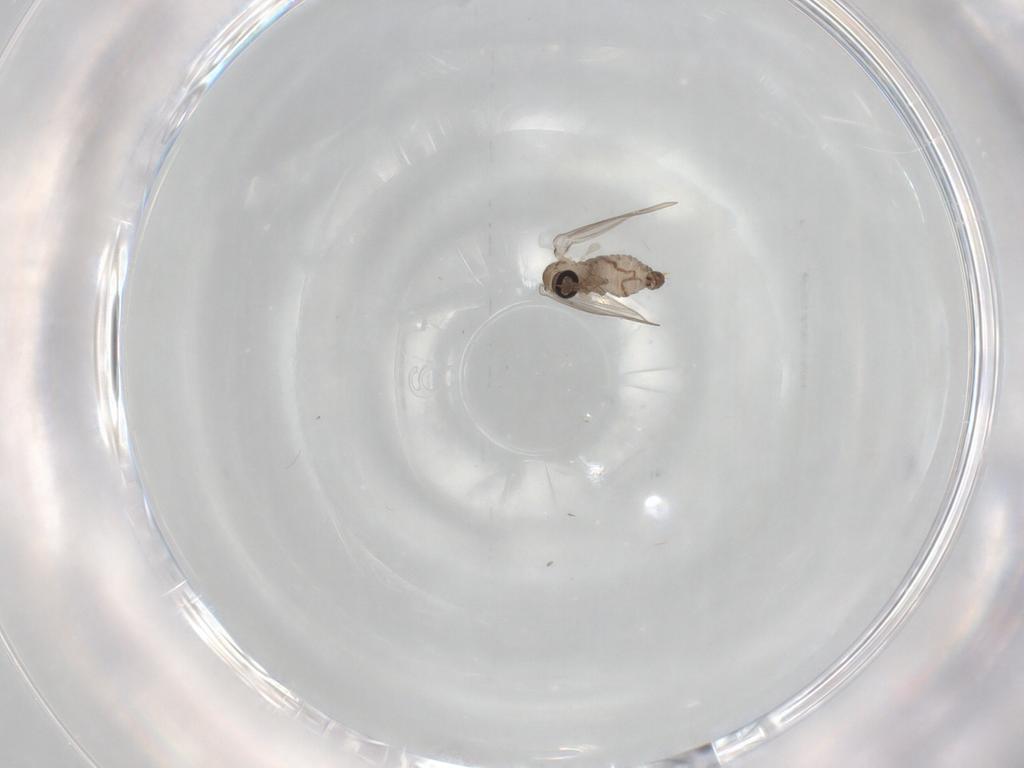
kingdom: Animalia
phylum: Arthropoda
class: Insecta
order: Diptera
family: Psychodidae
